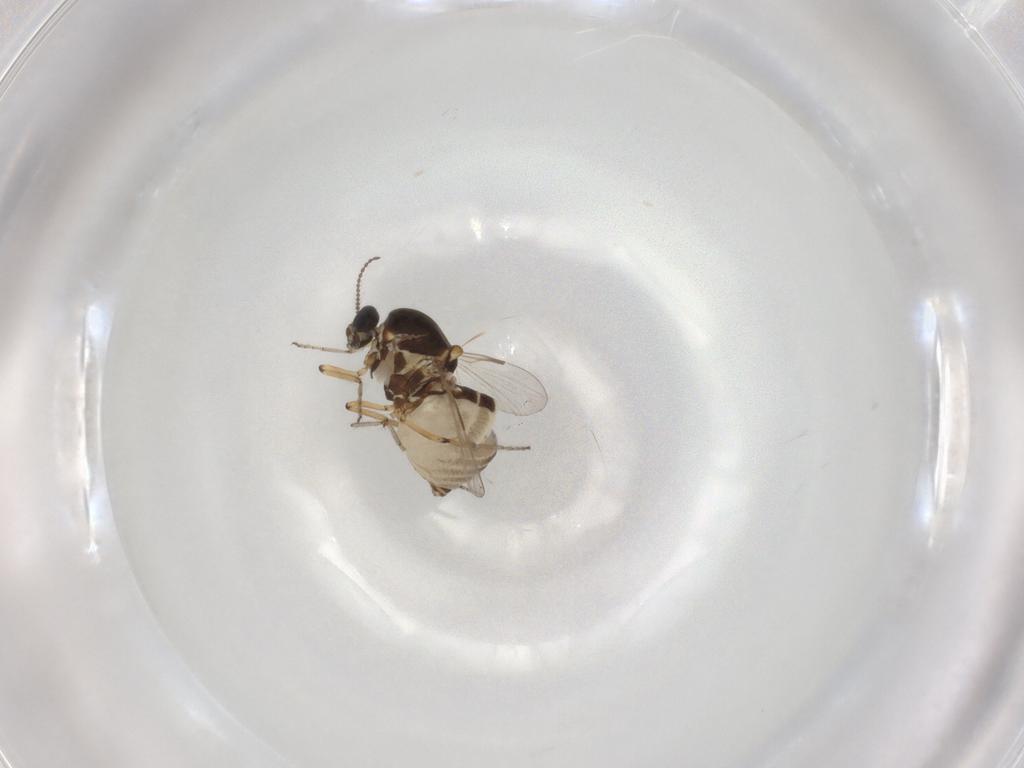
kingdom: Animalia
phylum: Arthropoda
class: Insecta
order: Diptera
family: Ceratopogonidae
